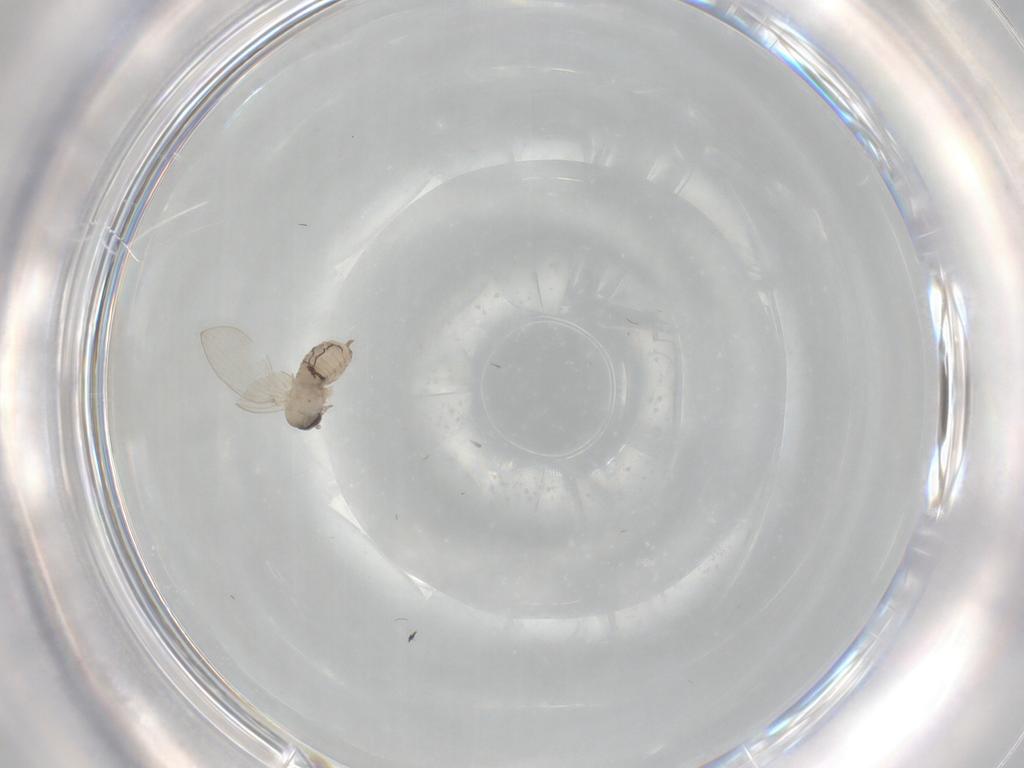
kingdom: Animalia
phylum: Arthropoda
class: Insecta
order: Diptera
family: Psychodidae
